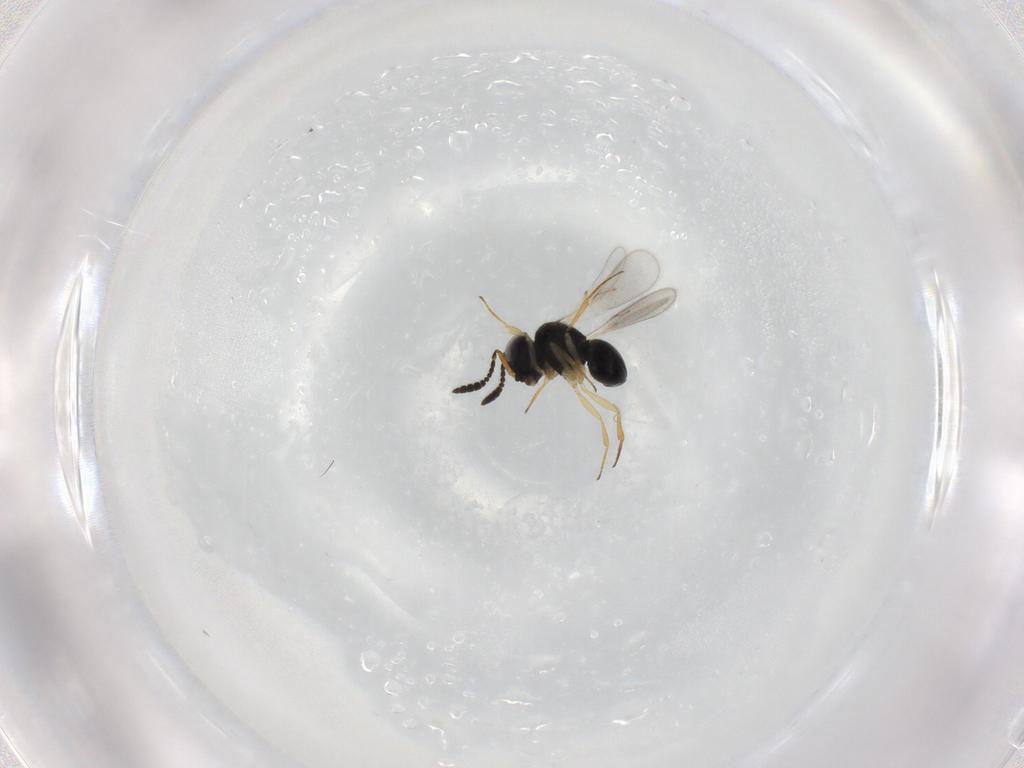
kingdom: Animalia
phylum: Arthropoda
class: Insecta
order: Hymenoptera
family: Scelionidae
